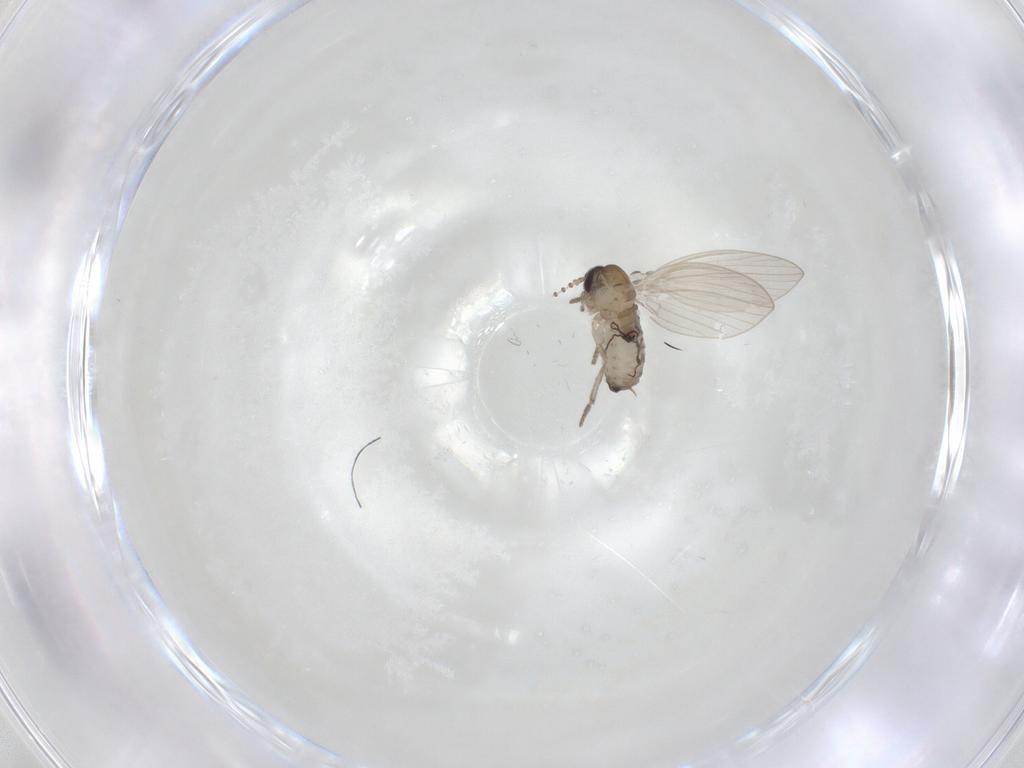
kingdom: Animalia
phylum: Arthropoda
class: Insecta
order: Diptera
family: Psychodidae
